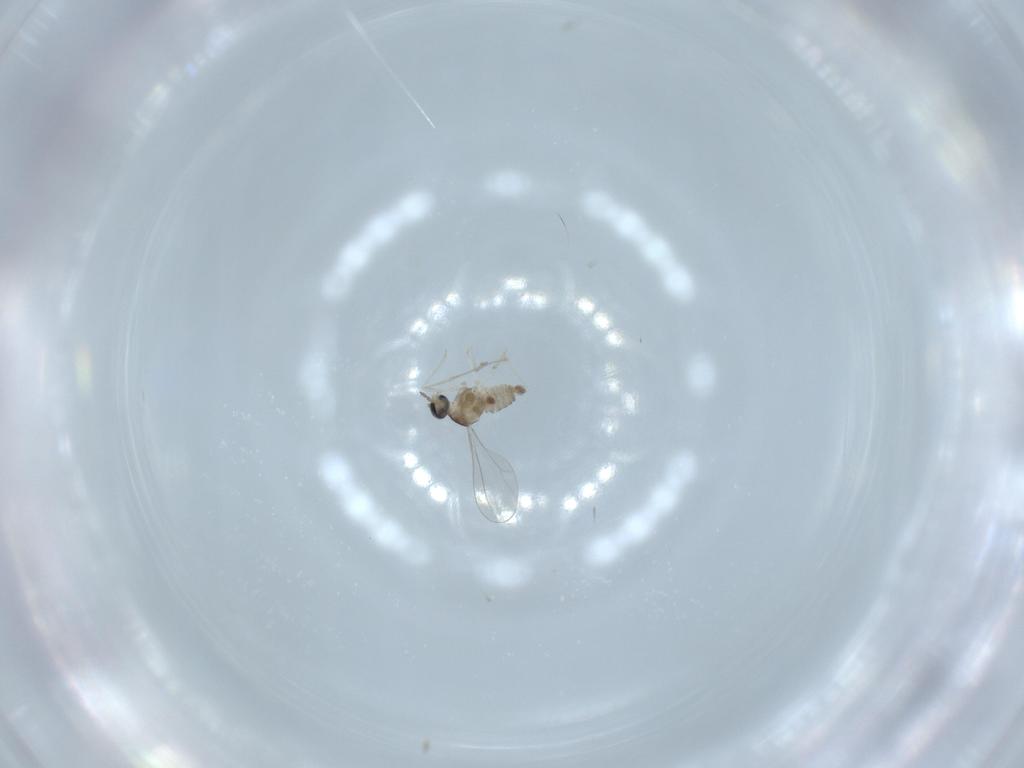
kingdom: Animalia
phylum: Arthropoda
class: Insecta
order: Diptera
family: Cecidomyiidae
